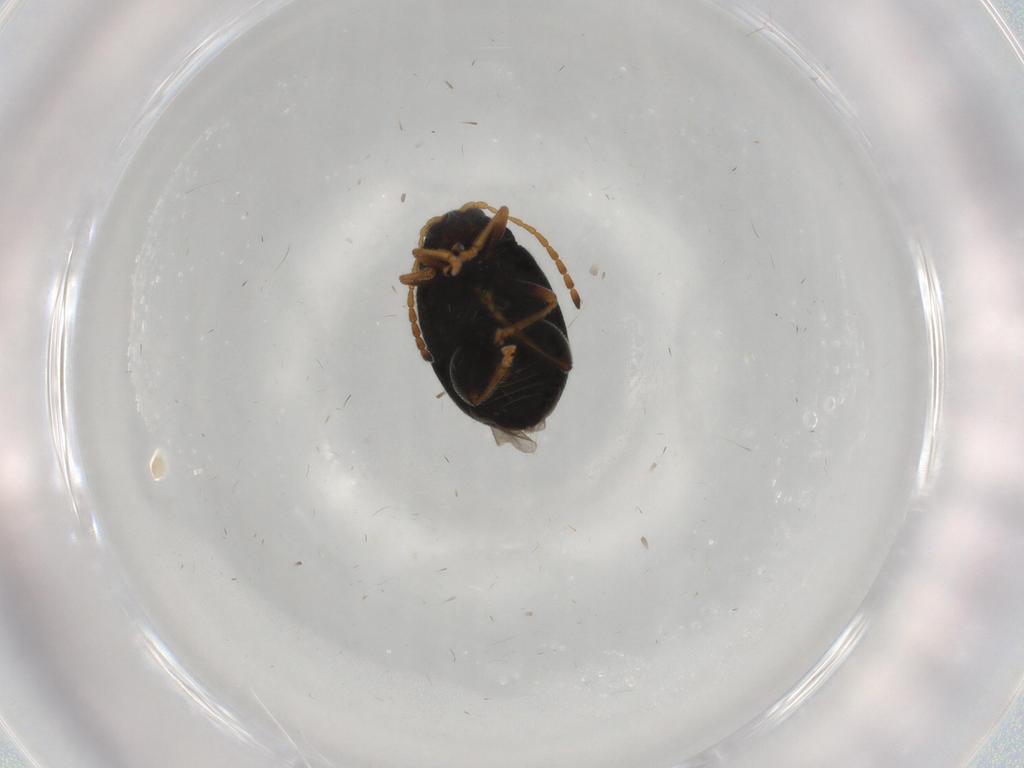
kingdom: Animalia
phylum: Arthropoda
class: Insecta
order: Coleoptera
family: Chrysomelidae
